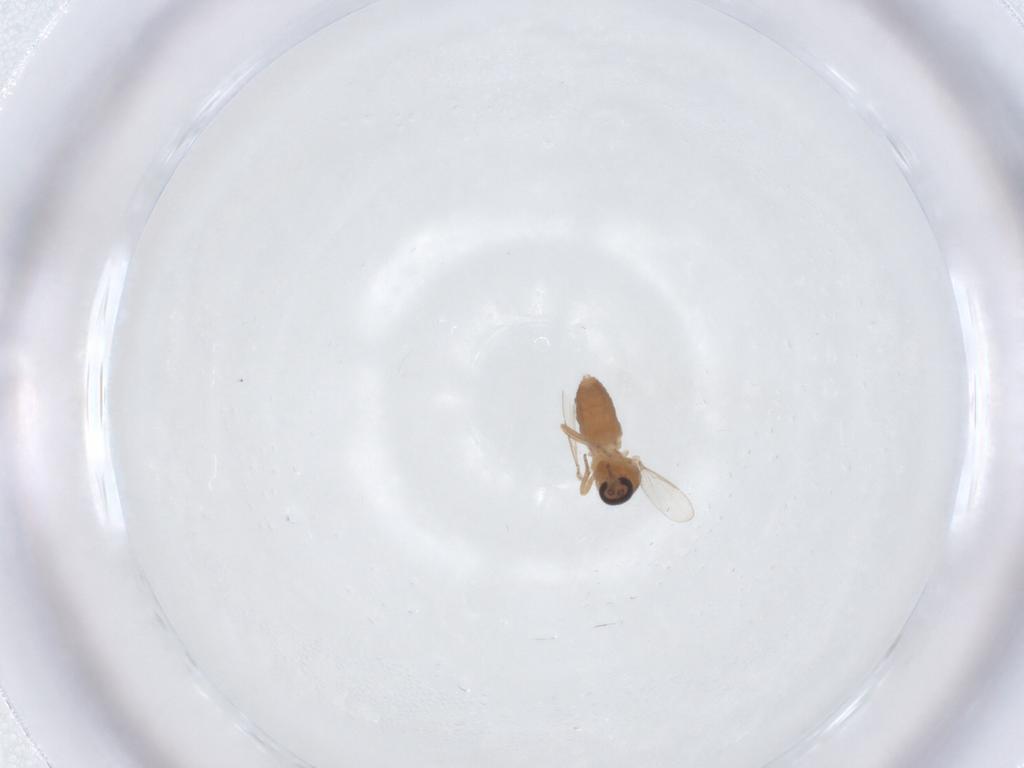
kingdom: Animalia
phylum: Arthropoda
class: Insecta
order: Diptera
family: Ceratopogonidae
